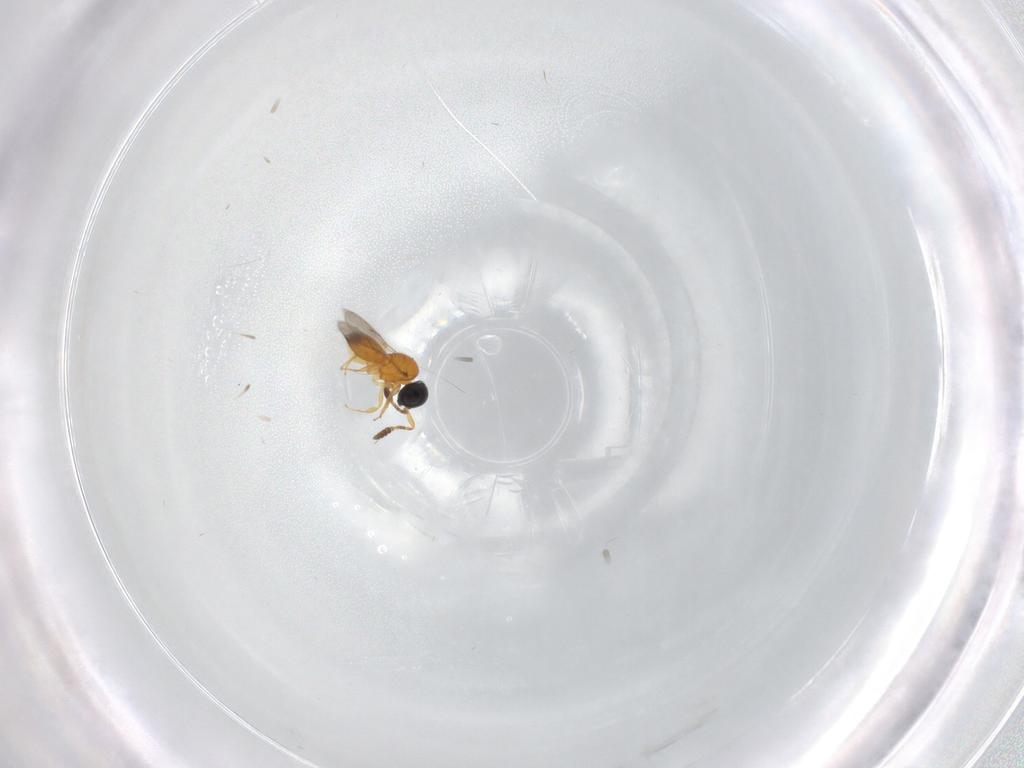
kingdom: Animalia
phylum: Arthropoda
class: Insecta
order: Hymenoptera
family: Scelionidae
